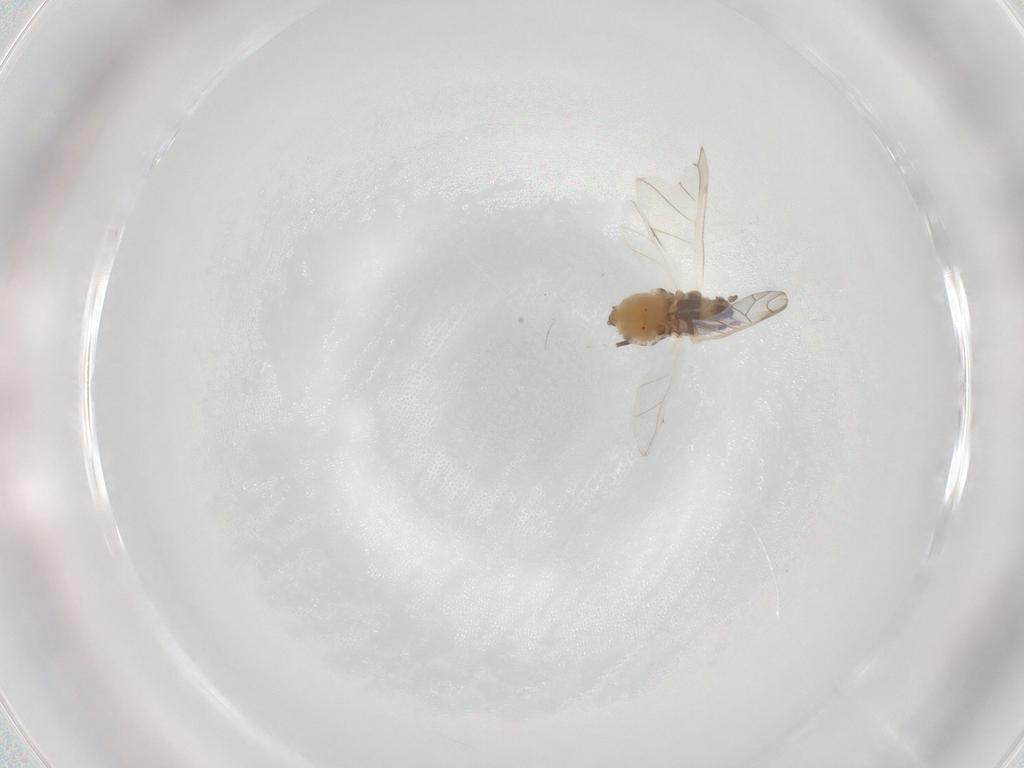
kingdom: Animalia
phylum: Arthropoda
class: Insecta
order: Hemiptera
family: Aphididae
